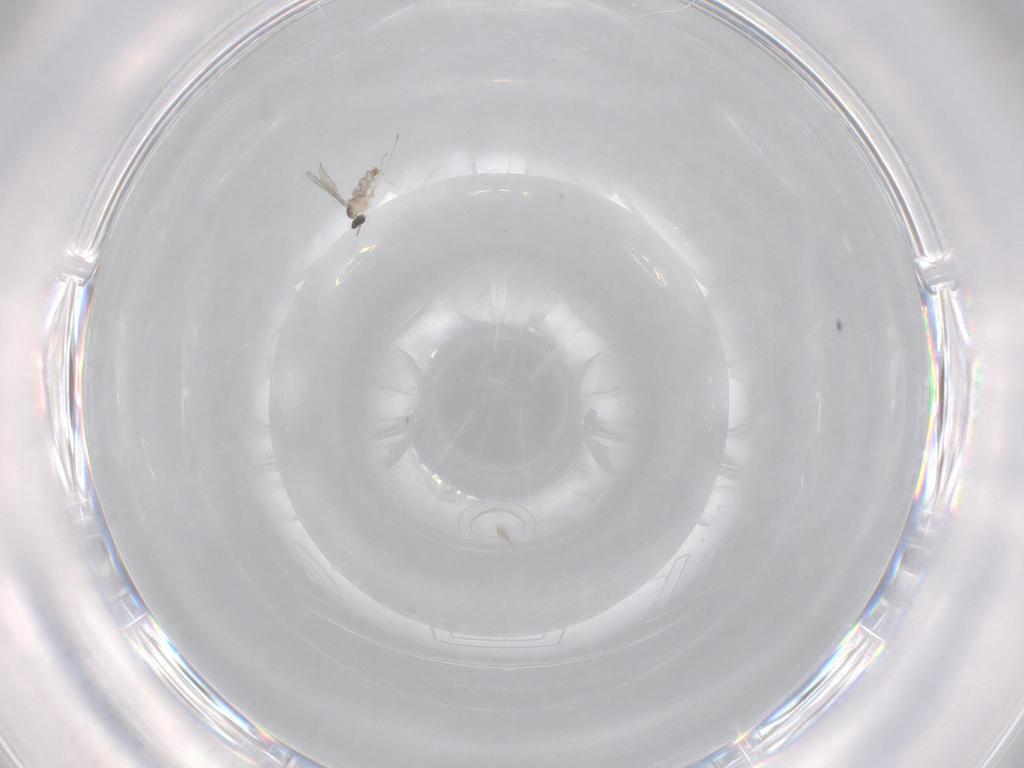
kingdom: Animalia
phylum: Arthropoda
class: Insecta
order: Diptera
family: Cecidomyiidae
